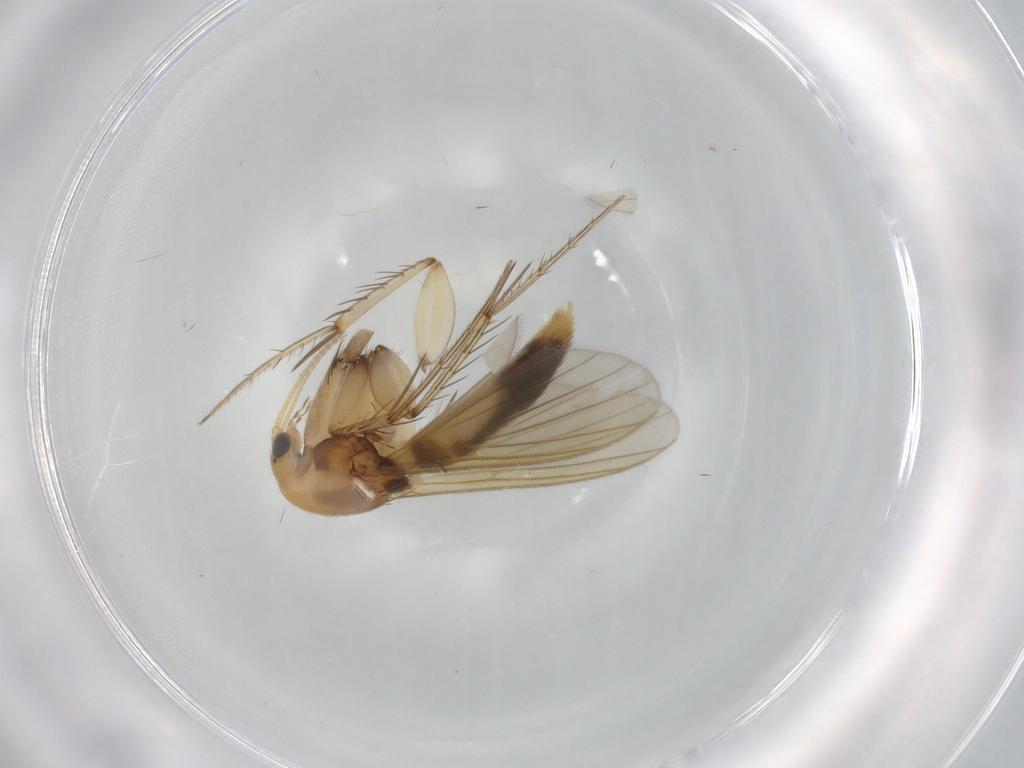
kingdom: Animalia
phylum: Arthropoda
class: Insecta
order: Diptera
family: Mycetophilidae
